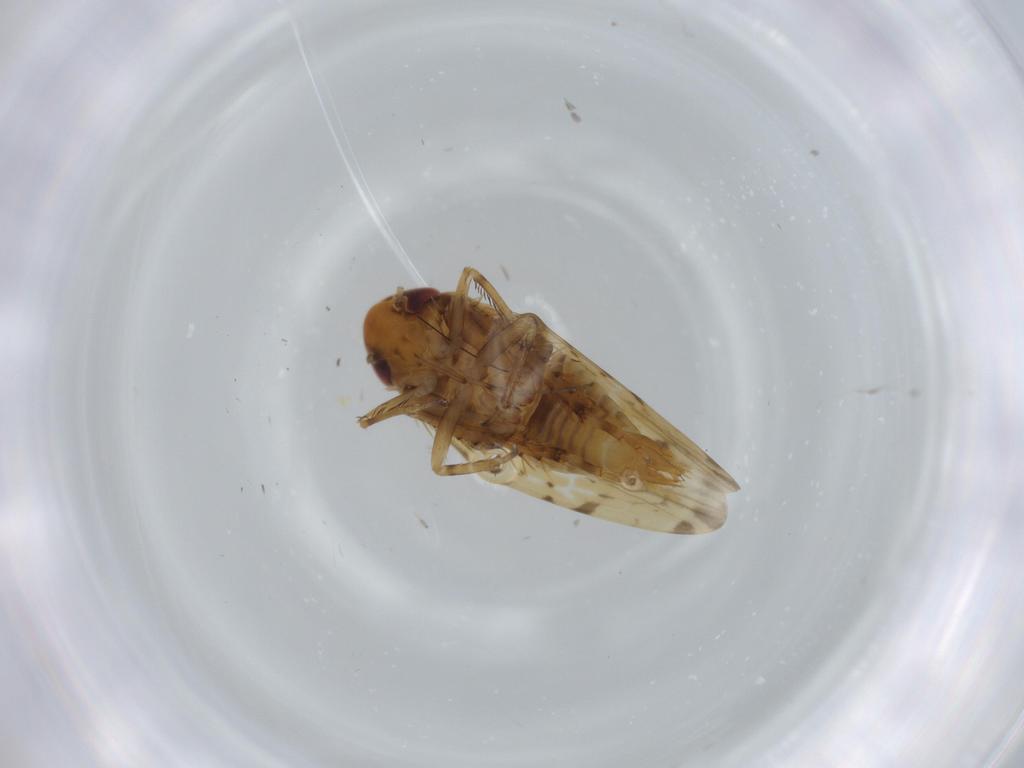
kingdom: Animalia
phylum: Arthropoda
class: Insecta
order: Hemiptera
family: Cicadellidae
